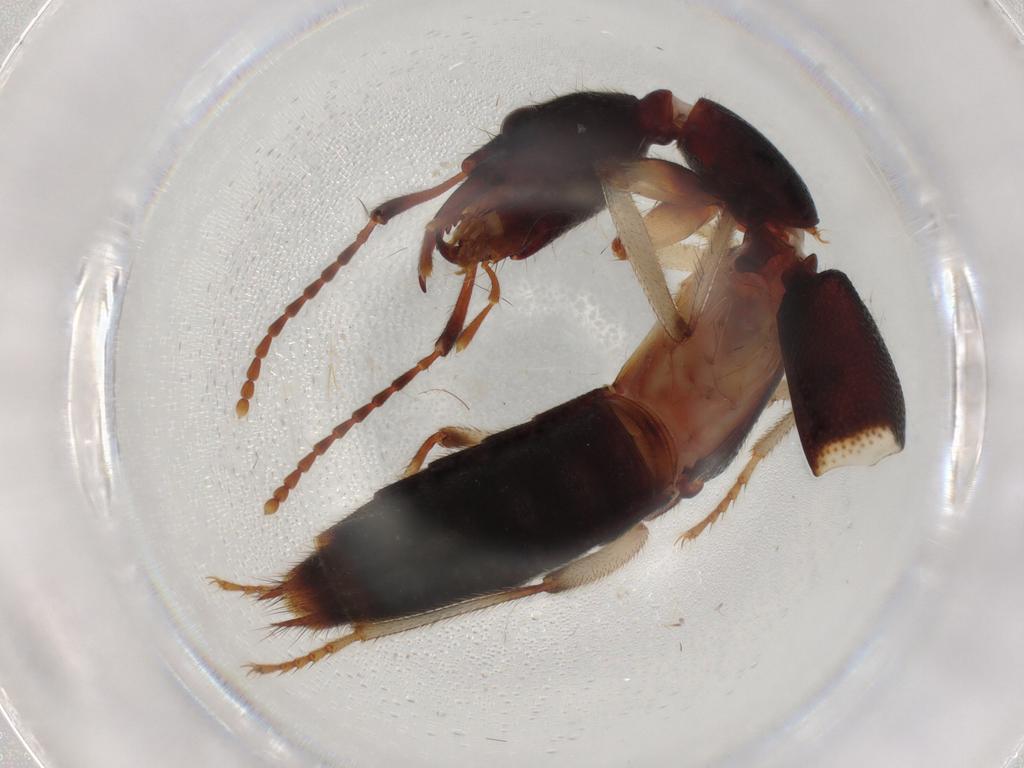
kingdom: Animalia
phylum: Arthropoda
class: Insecta
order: Coleoptera
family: Staphylinidae
